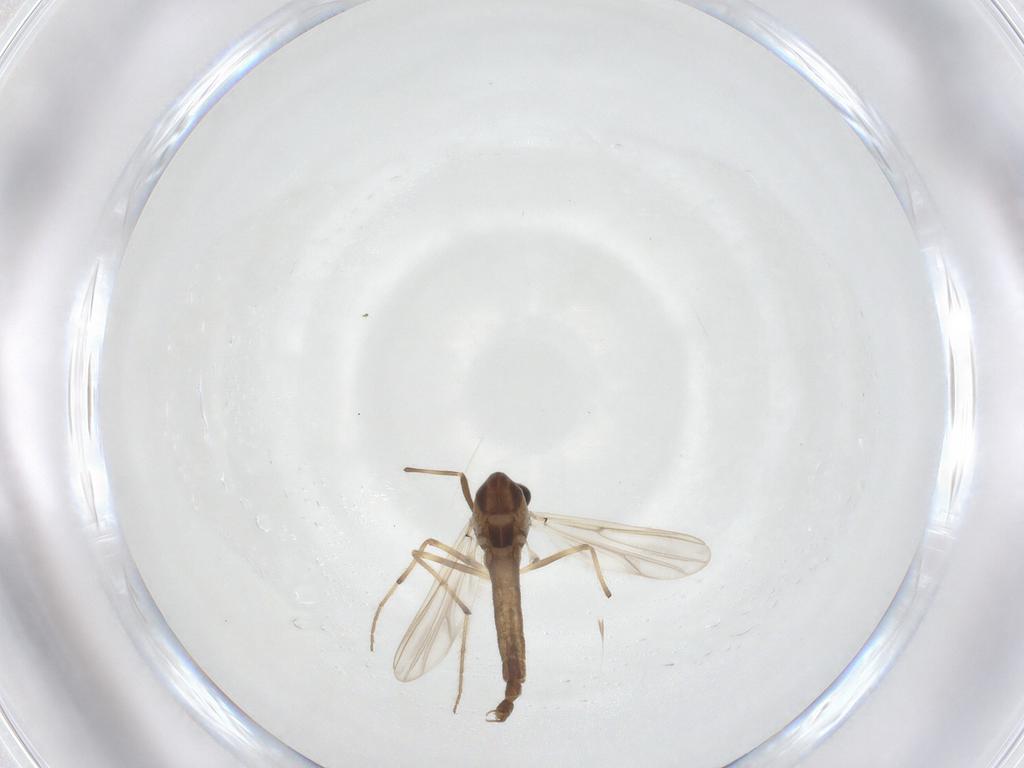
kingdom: Animalia
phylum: Arthropoda
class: Insecta
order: Diptera
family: Chironomidae
